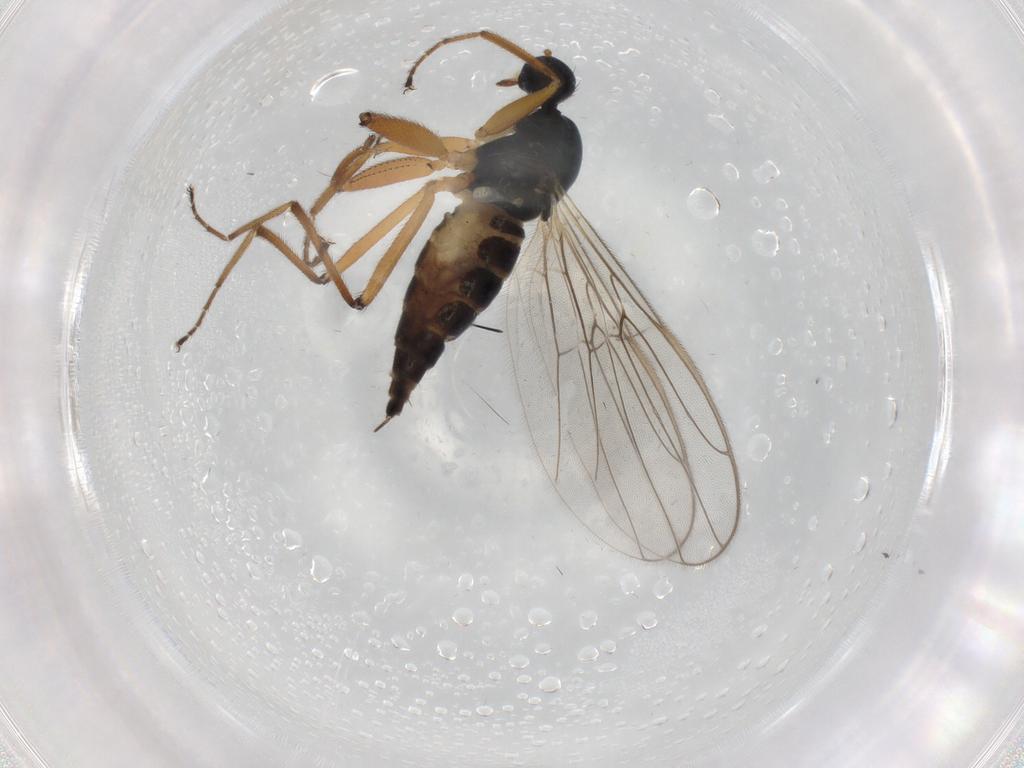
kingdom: Animalia
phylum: Arthropoda
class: Insecta
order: Diptera
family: Hybotidae
